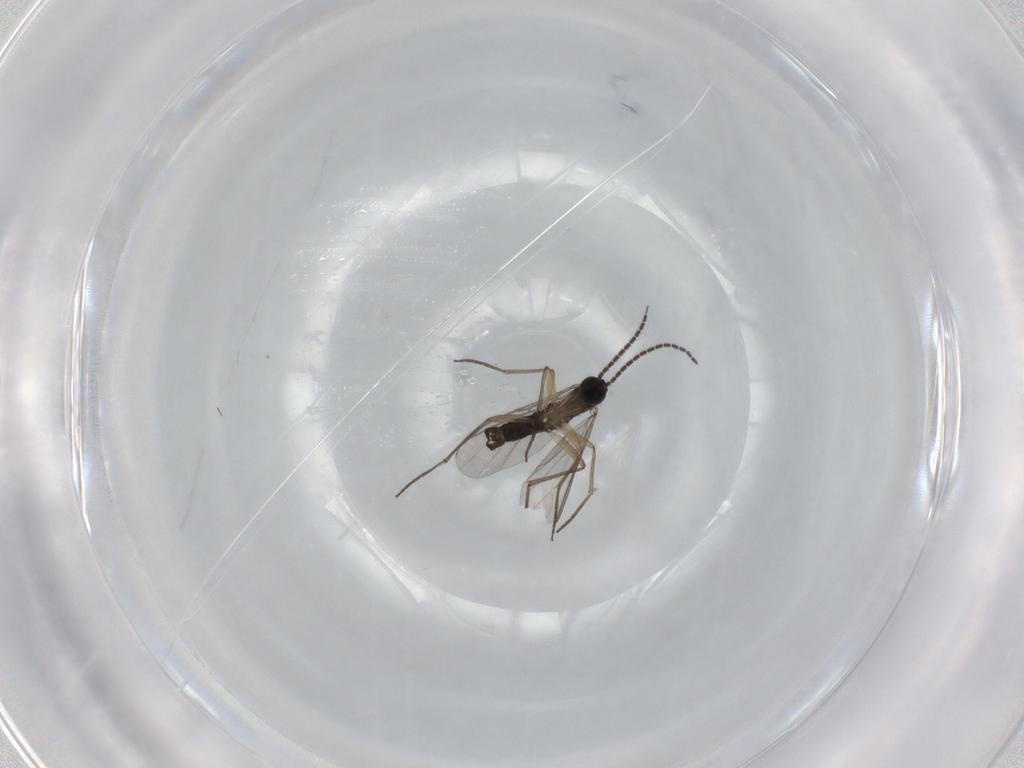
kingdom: Animalia
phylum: Arthropoda
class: Insecta
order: Diptera
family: Sciaridae
